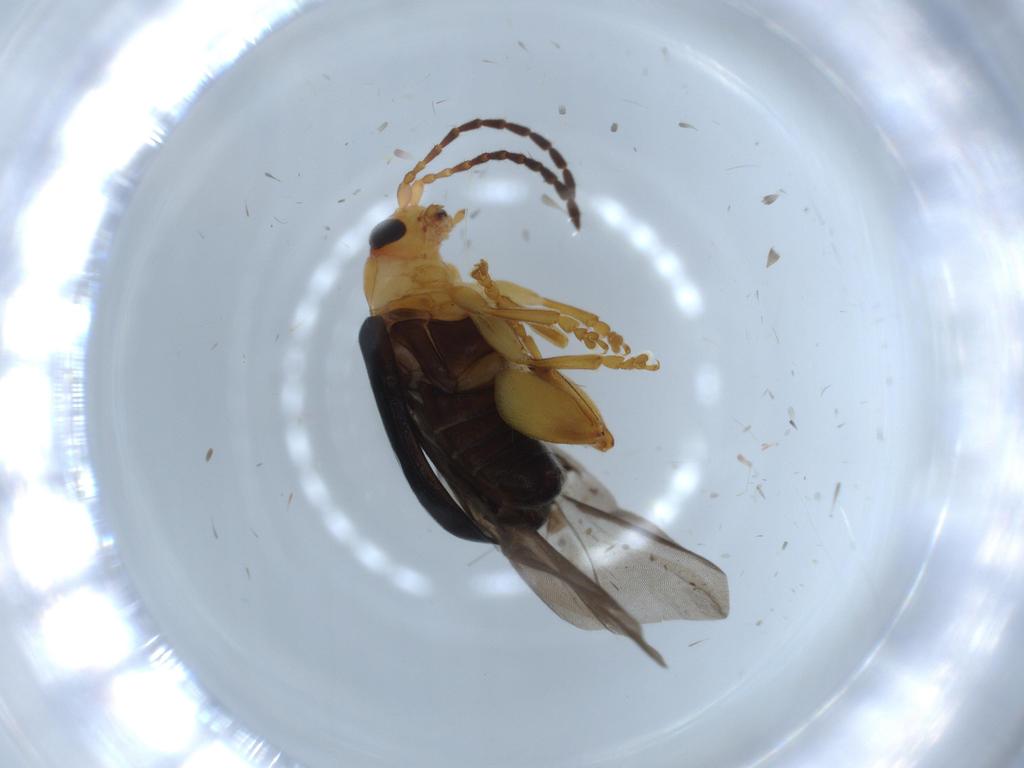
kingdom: Animalia
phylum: Arthropoda
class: Insecta
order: Coleoptera
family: Chrysomelidae
